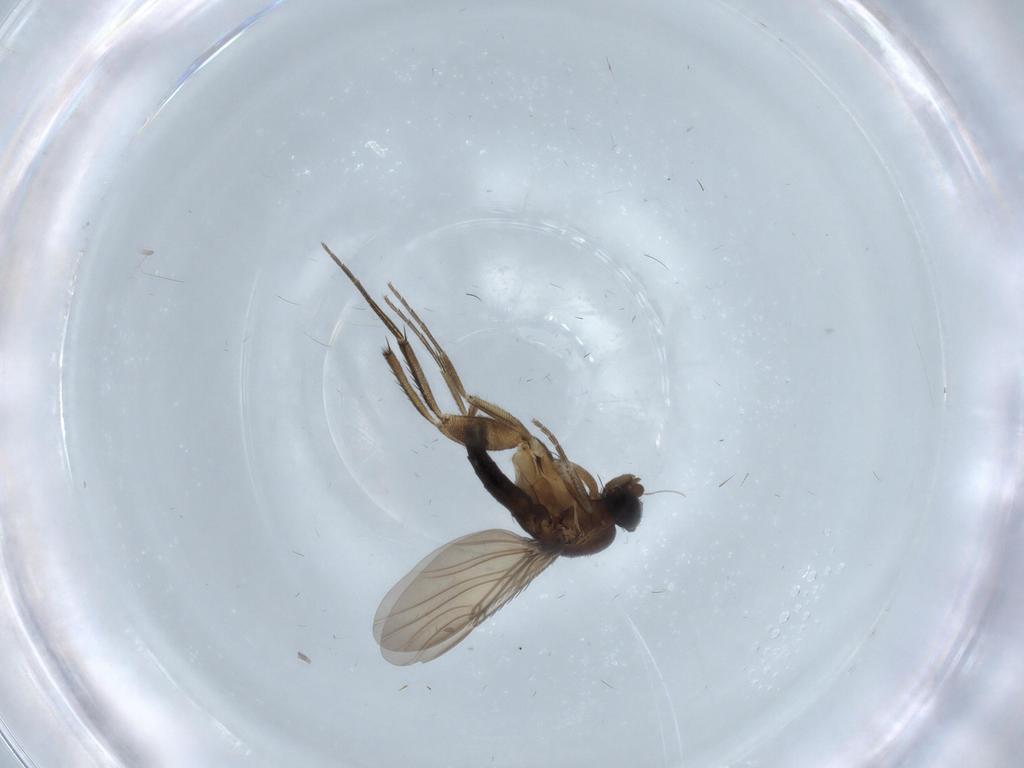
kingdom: Animalia
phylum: Arthropoda
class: Insecta
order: Diptera
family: Phoridae
